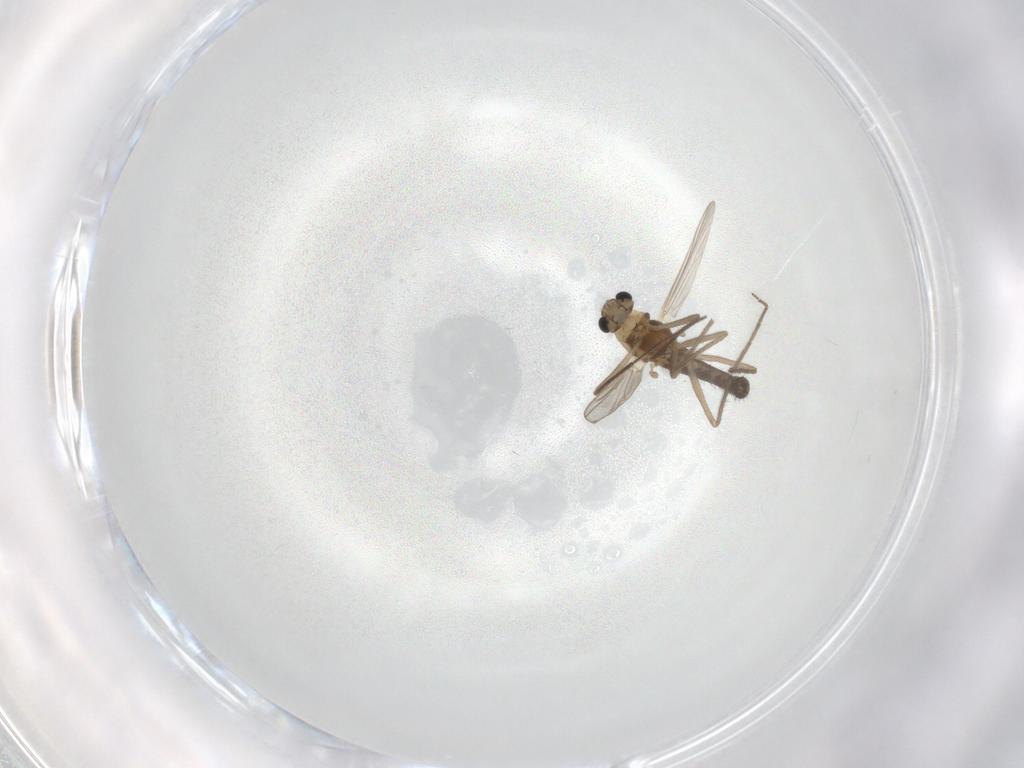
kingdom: Animalia
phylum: Arthropoda
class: Insecta
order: Diptera
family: Chironomidae
